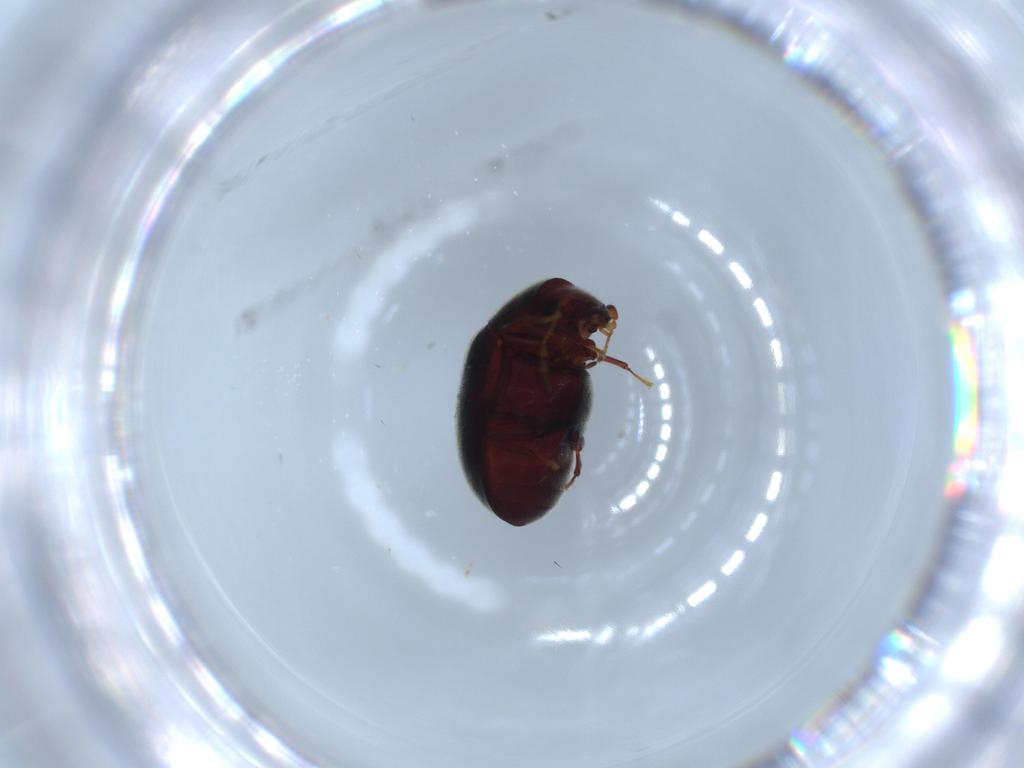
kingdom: Animalia
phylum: Arthropoda
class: Insecta
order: Coleoptera
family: Ptinidae
